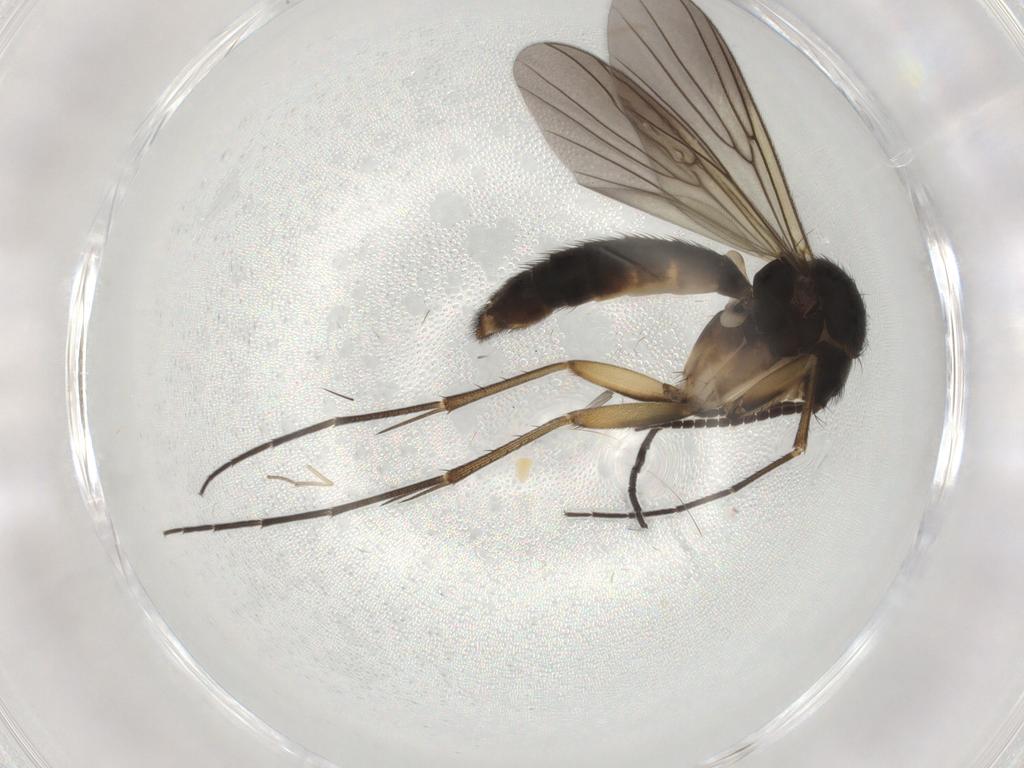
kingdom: Animalia
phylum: Arthropoda
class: Insecta
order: Diptera
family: Mycetophilidae
